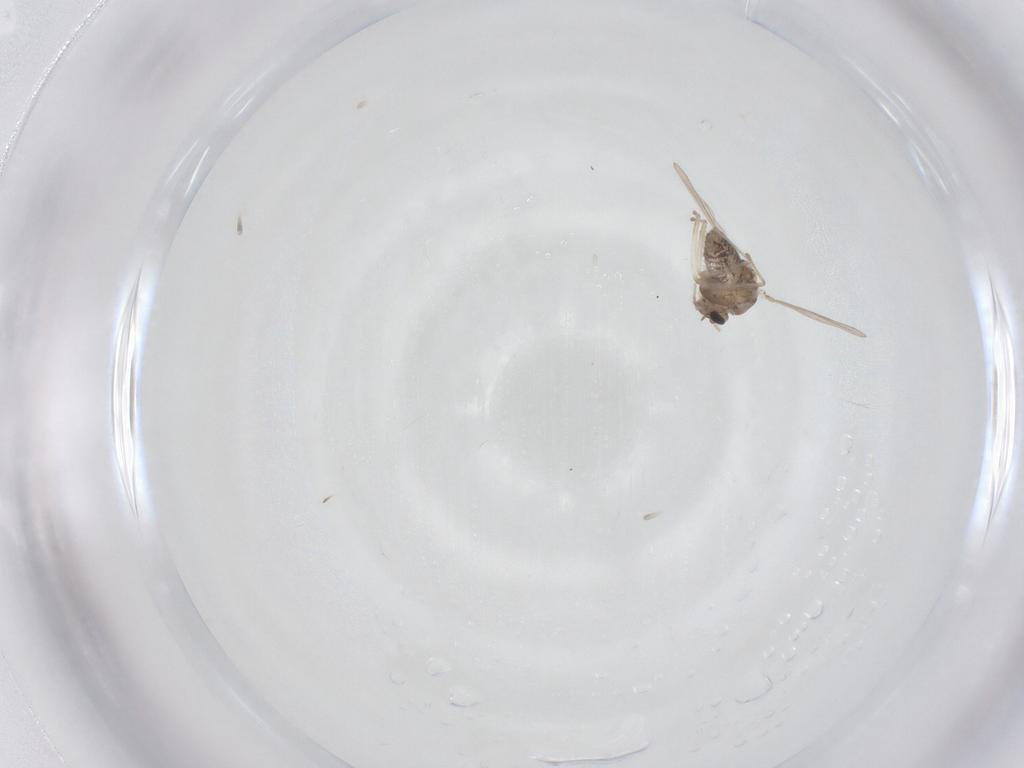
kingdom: Animalia
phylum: Arthropoda
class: Insecta
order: Diptera
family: Chironomidae
